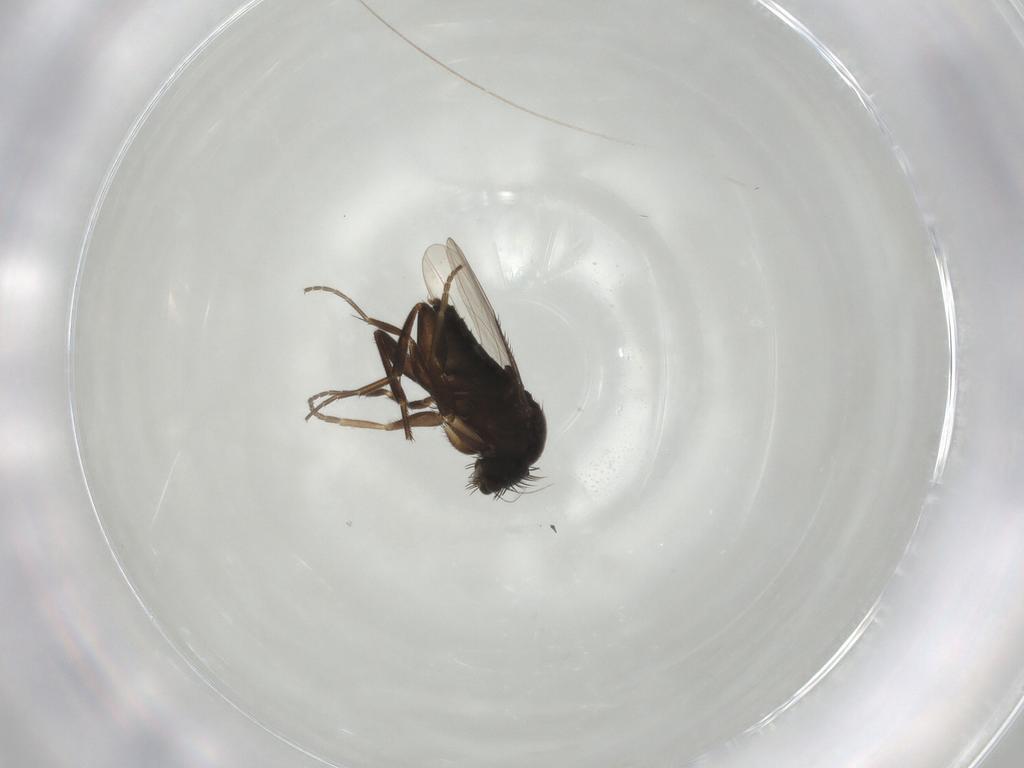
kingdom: Animalia
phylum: Arthropoda
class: Insecta
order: Diptera
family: Phoridae
